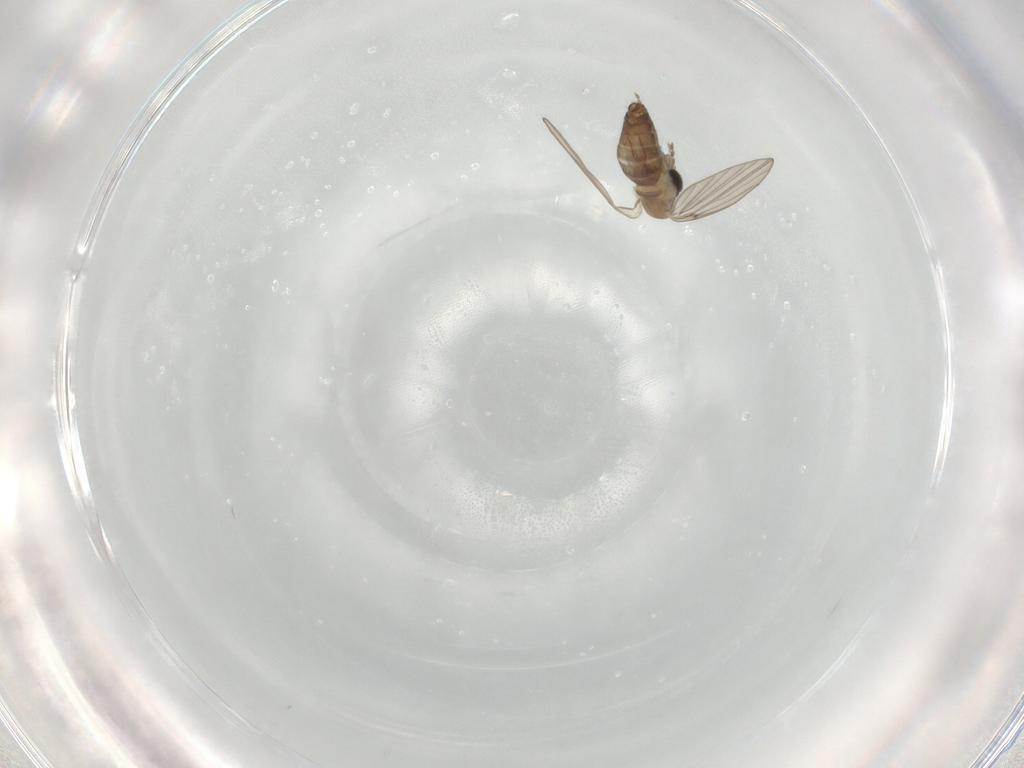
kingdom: Animalia
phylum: Arthropoda
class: Insecta
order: Diptera
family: Psychodidae
